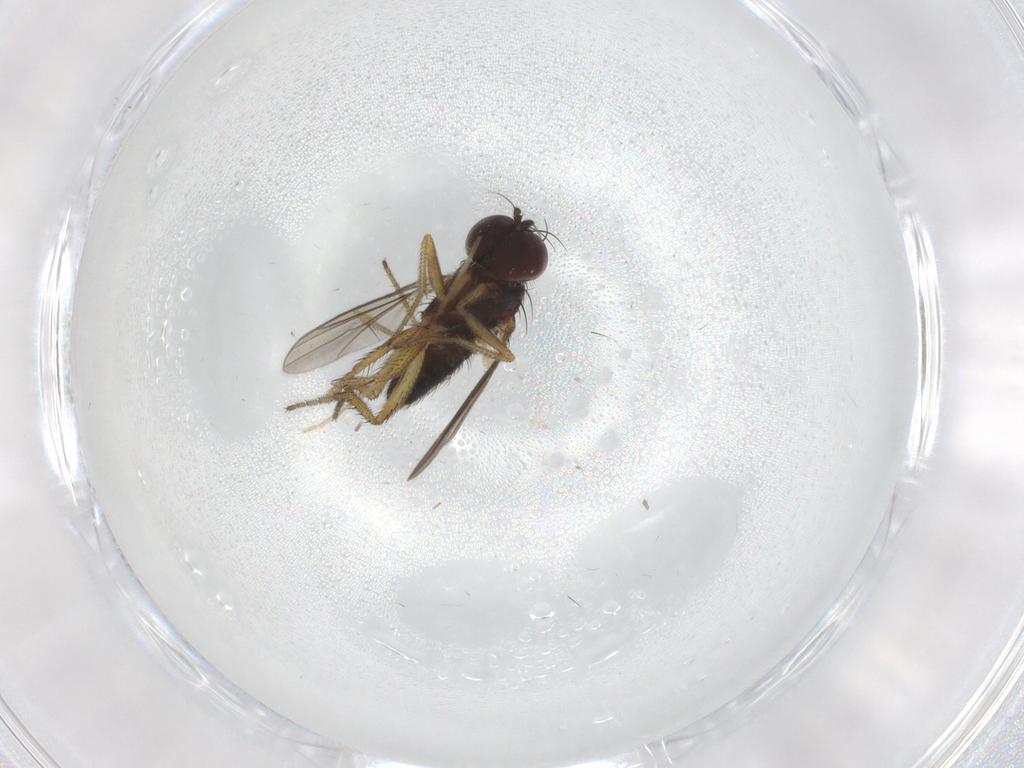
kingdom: Animalia
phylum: Arthropoda
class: Insecta
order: Diptera
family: Dolichopodidae
